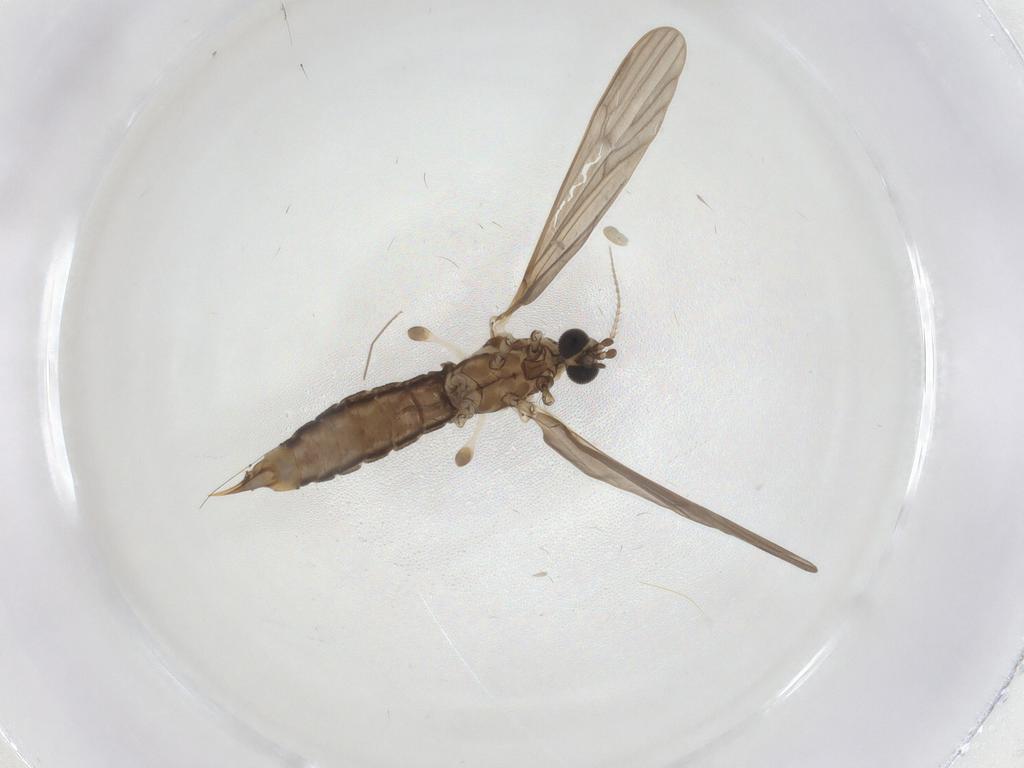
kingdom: Animalia
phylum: Arthropoda
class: Insecta
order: Diptera
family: Limoniidae
